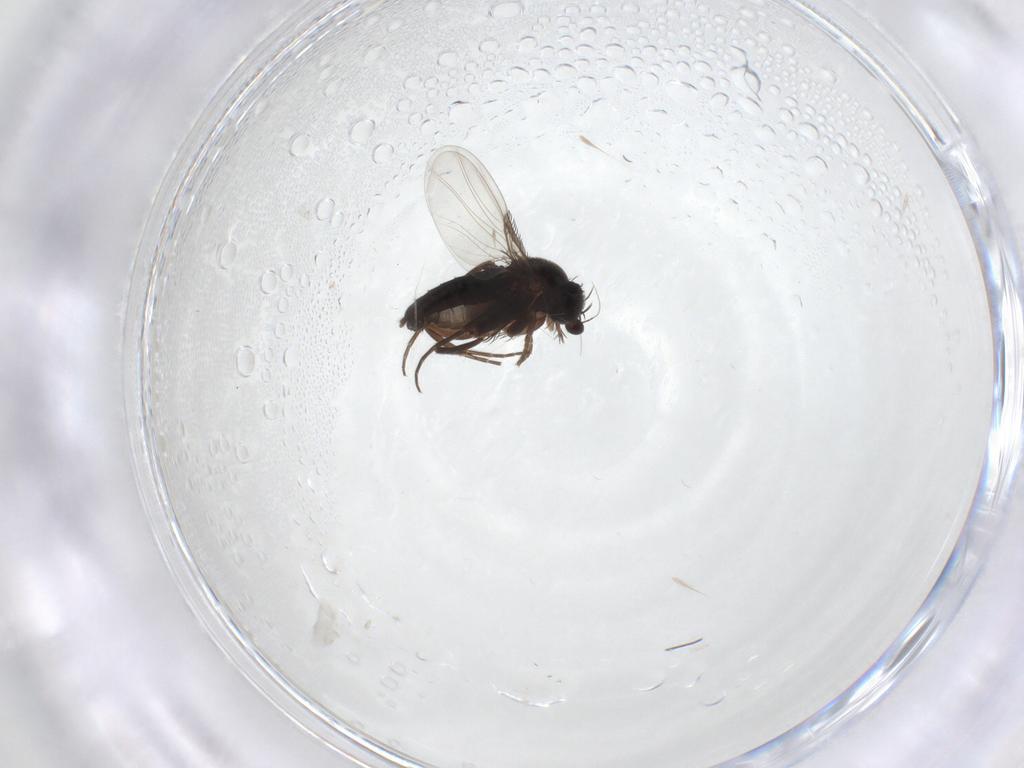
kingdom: Animalia
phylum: Arthropoda
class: Insecta
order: Diptera
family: Phoridae
